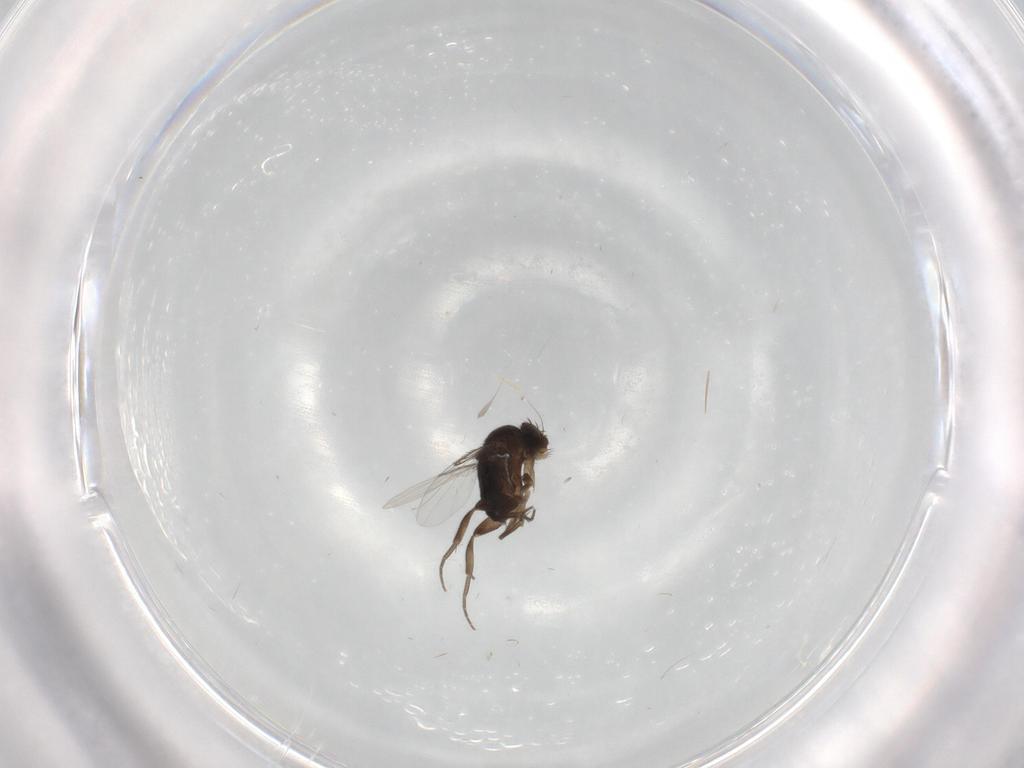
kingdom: Animalia
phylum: Arthropoda
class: Insecta
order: Diptera
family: Phoridae
